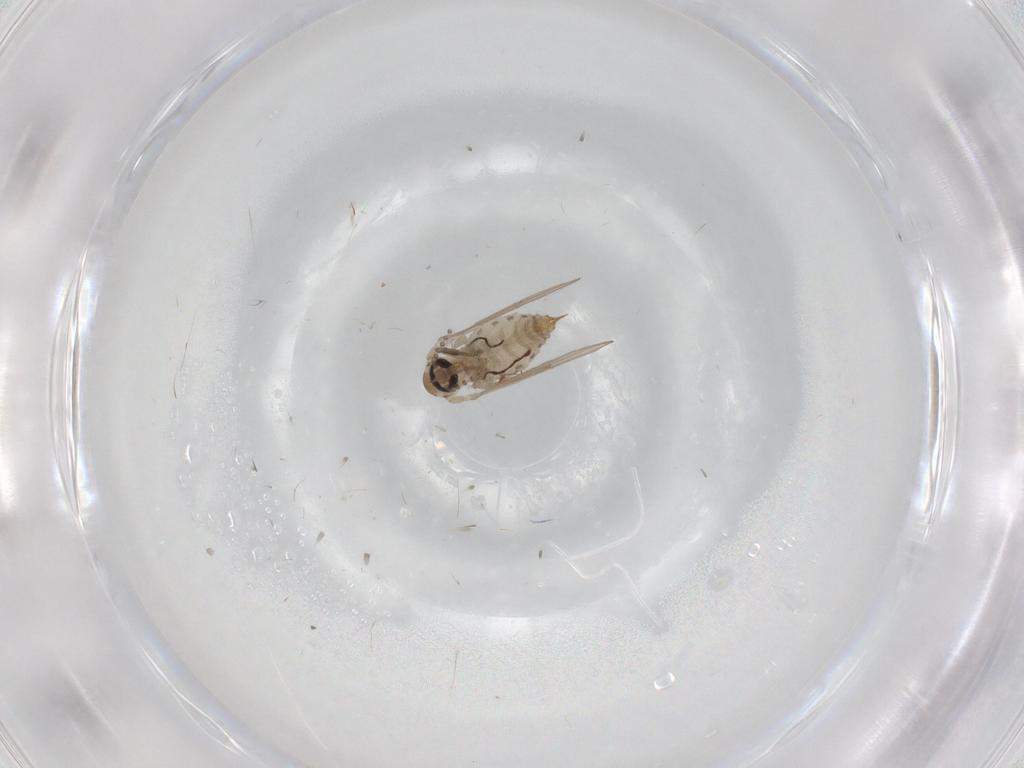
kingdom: Animalia
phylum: Arthropoda
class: Insecta
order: Diptera
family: Psychodidae
